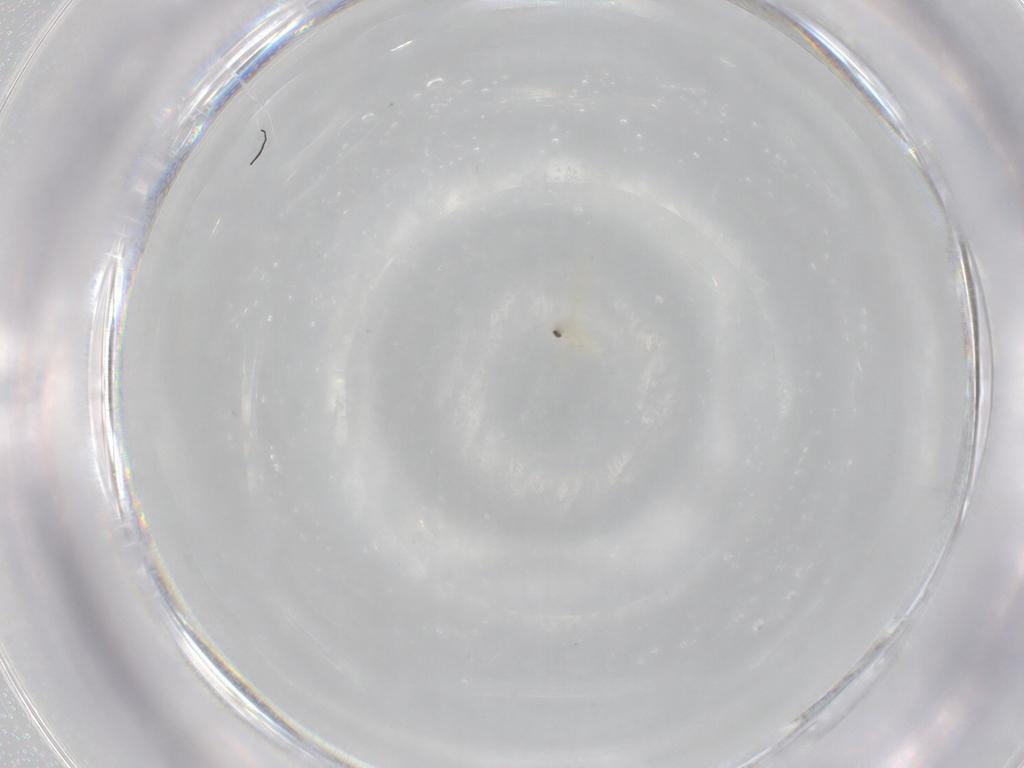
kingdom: Animalia
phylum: Arthropoda
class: Insecta
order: Hemiptera
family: Aleyrodidae
